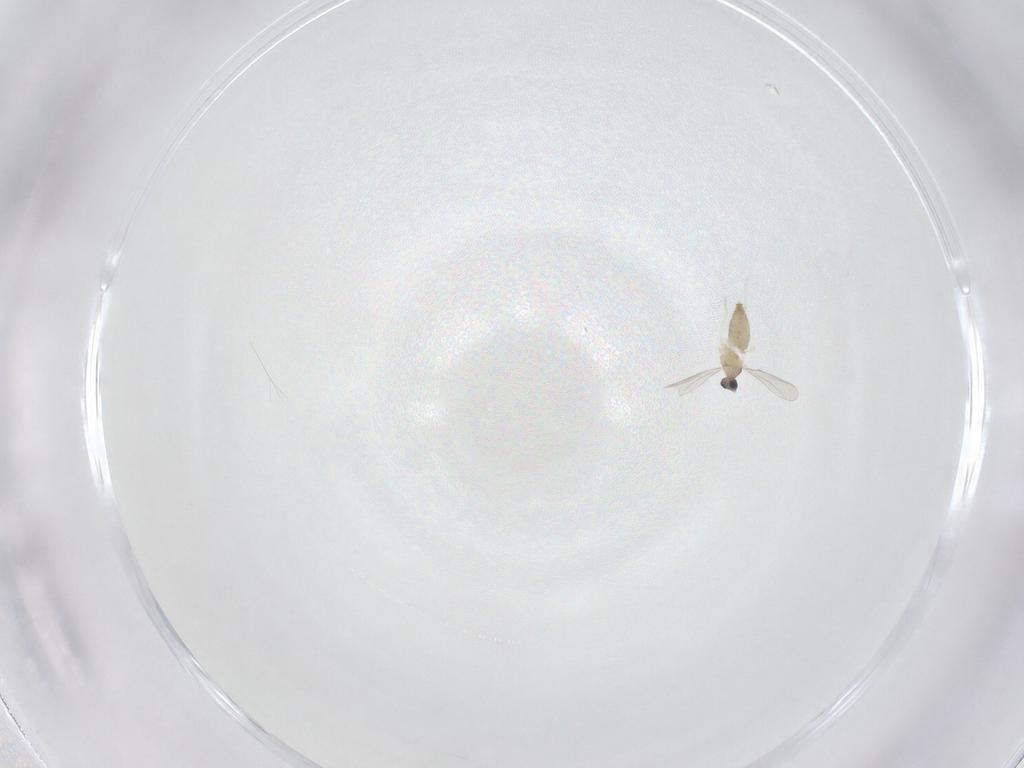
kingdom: Animalia
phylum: Arthropoda
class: Insecta
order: Diptera
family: Cecidomyiidae
